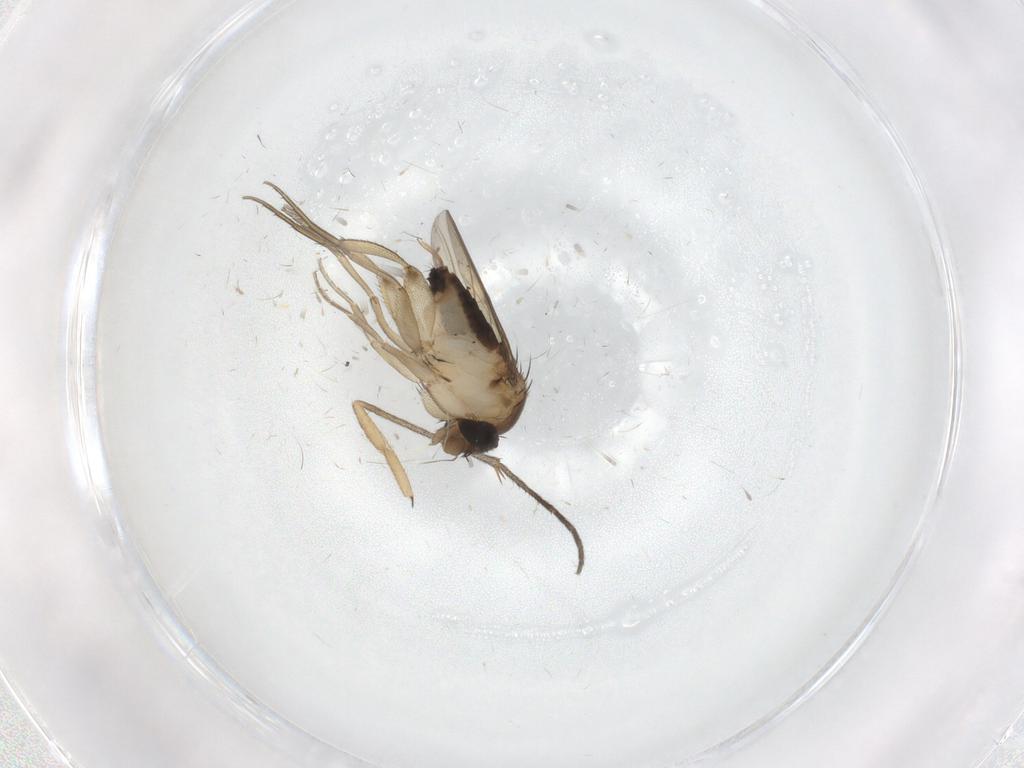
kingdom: Animalia
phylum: Arthropoda
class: Insecta
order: Diptera
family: Phoridae
